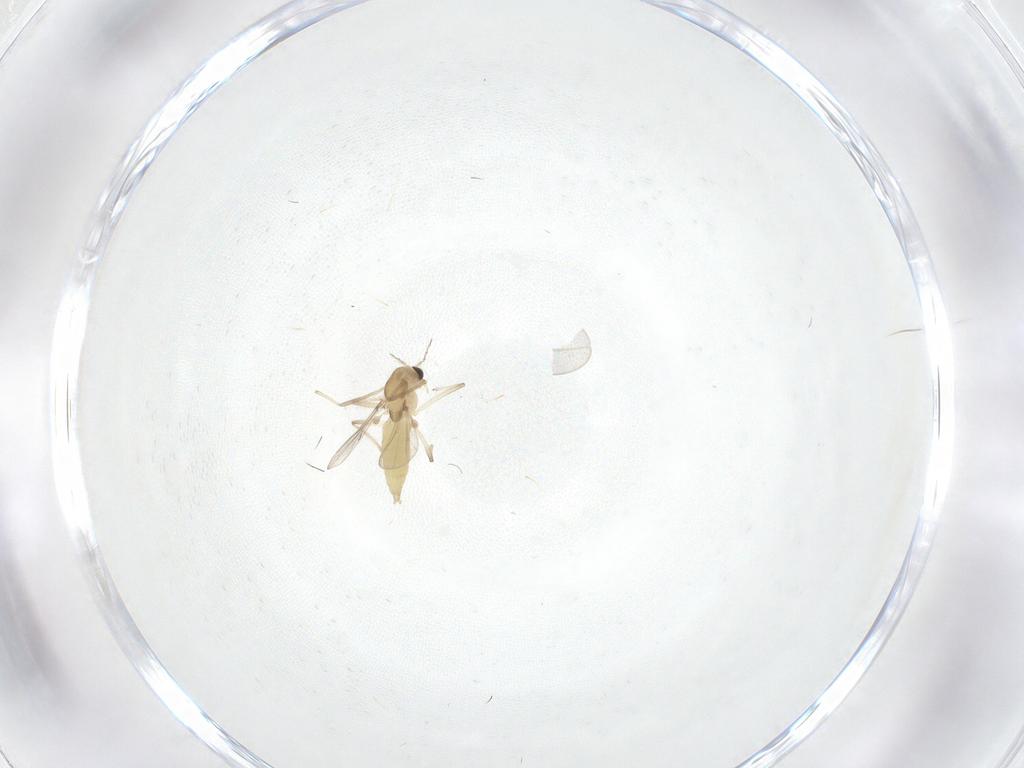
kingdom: Animalia
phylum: Arthropoda
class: Insecta
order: Diptera
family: Chironomidae
